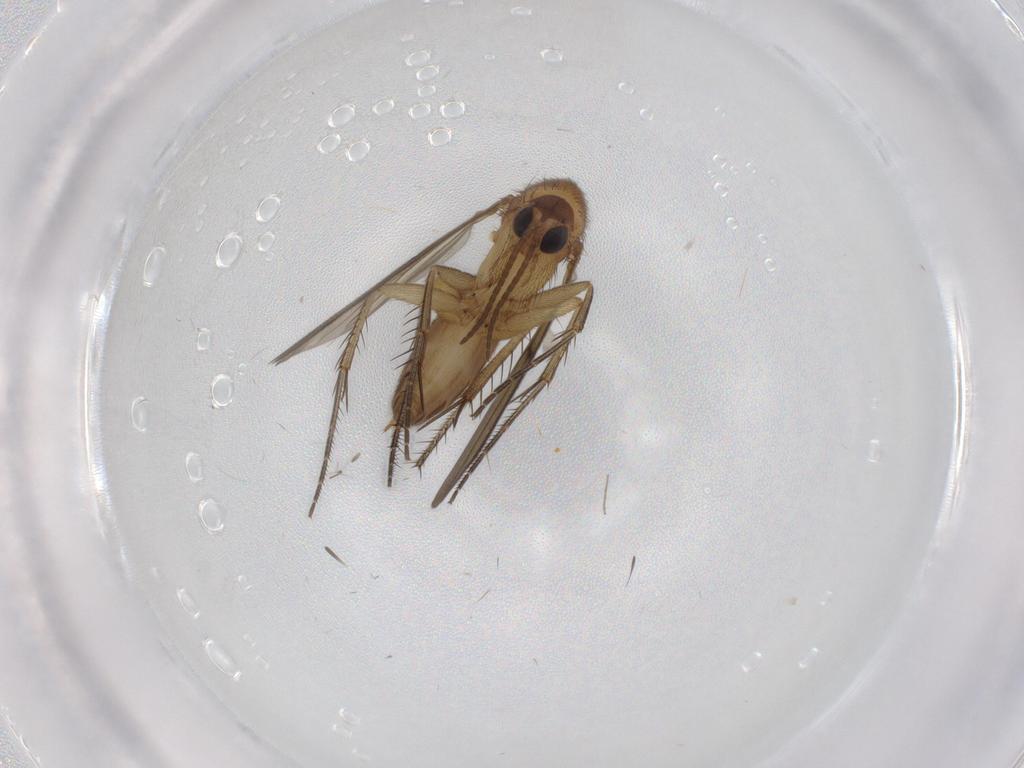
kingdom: Animalia
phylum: Arthropoda
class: Insecta
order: Diptera
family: Chironomidae
